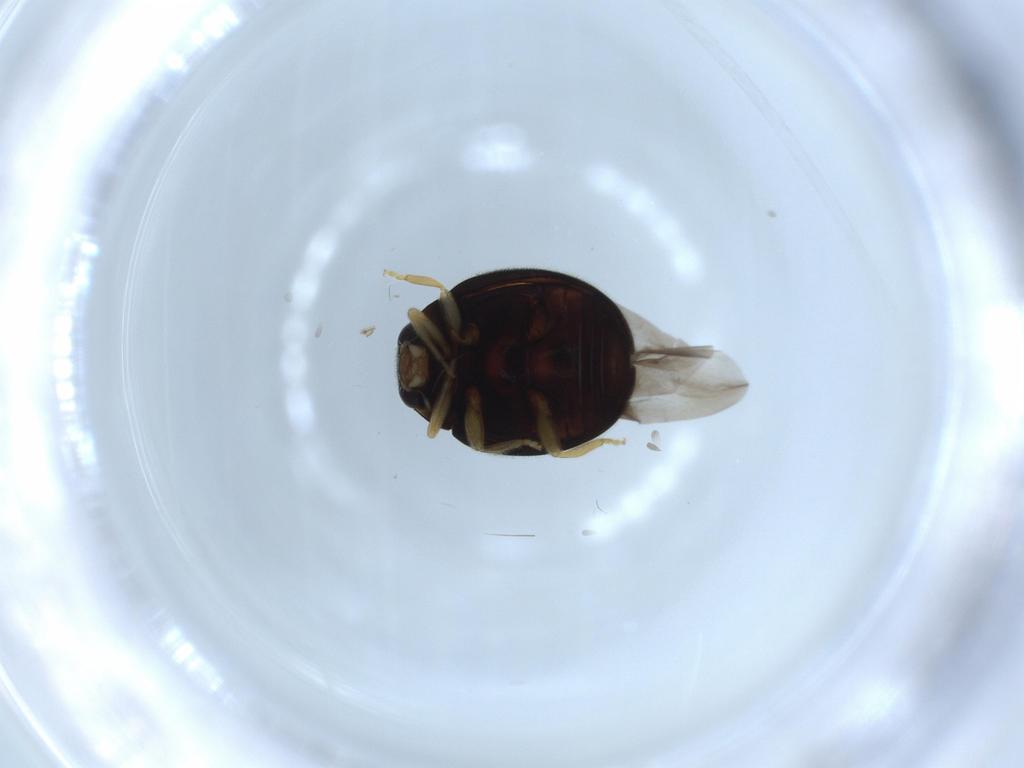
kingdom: Animalia
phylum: Arthropoda
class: Insecta
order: Coleoptera
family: Coccinellidae
